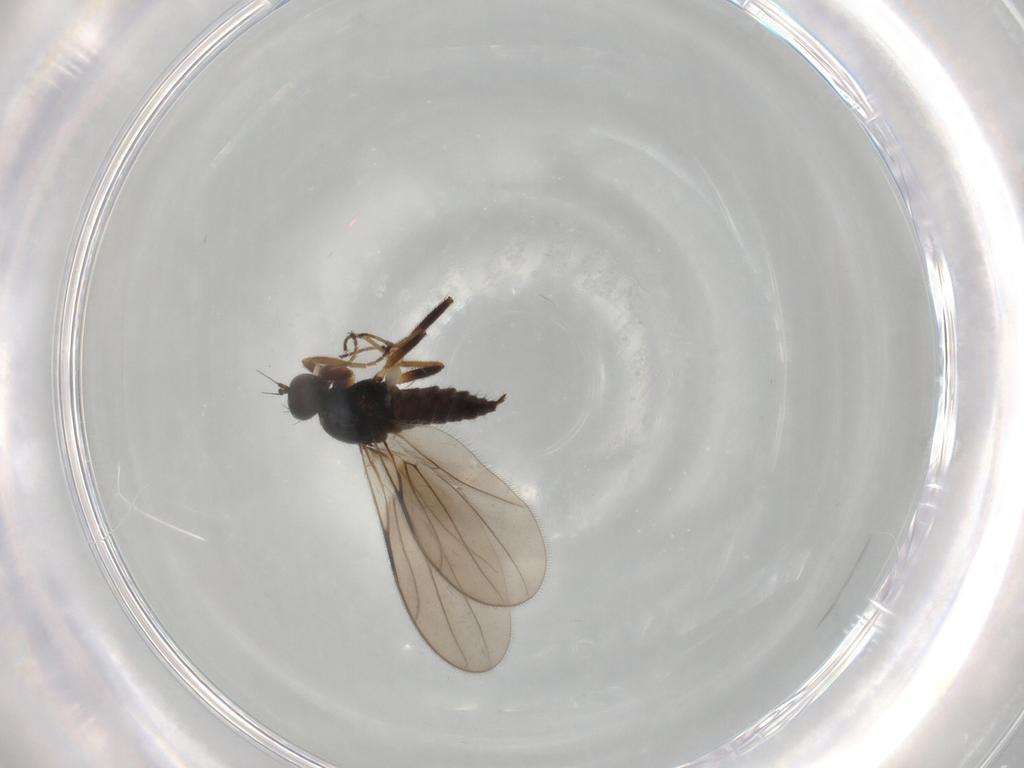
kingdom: Animalia
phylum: Arthropoda
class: Insecta
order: Diptera
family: Hybotidae
